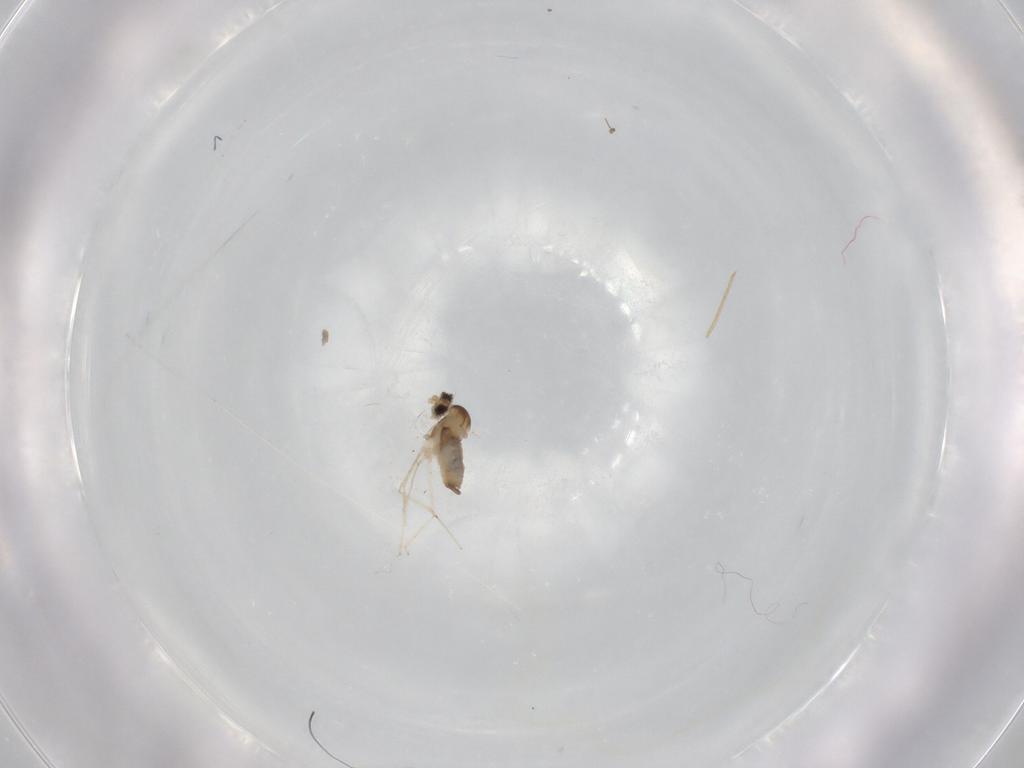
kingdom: Animalia
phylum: Arthropoda
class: Insecta
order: Diptera
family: Cecidomyiidae
